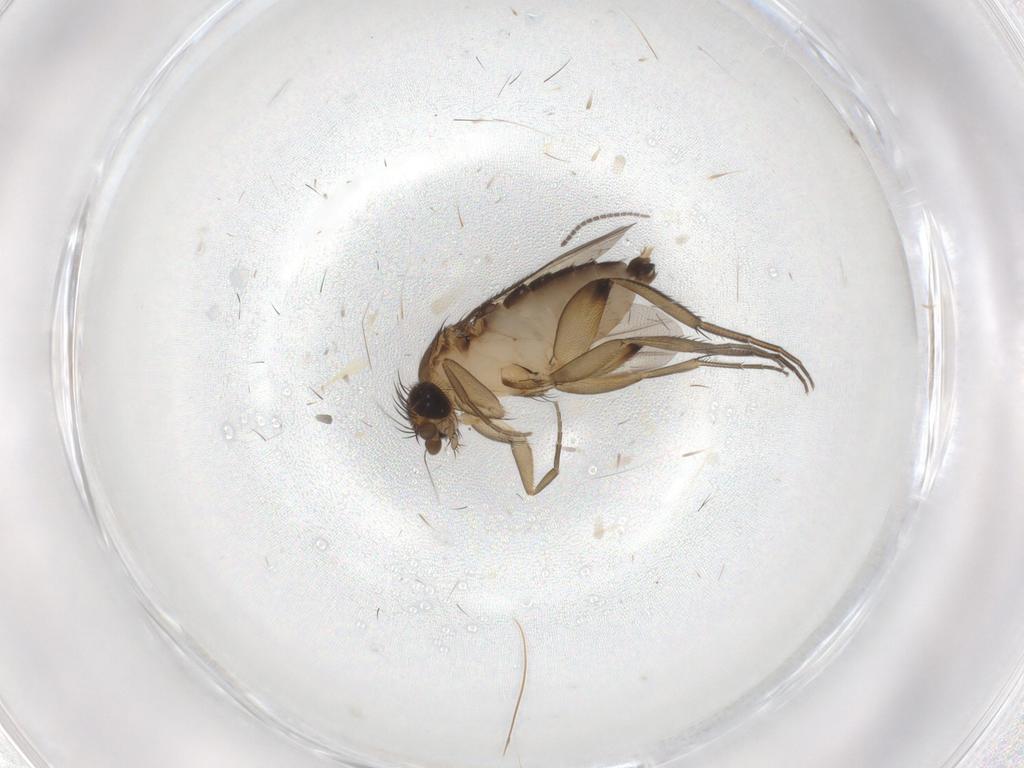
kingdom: Animalia
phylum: Arthropoda
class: Insecta
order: Diptera
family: Phoridae
